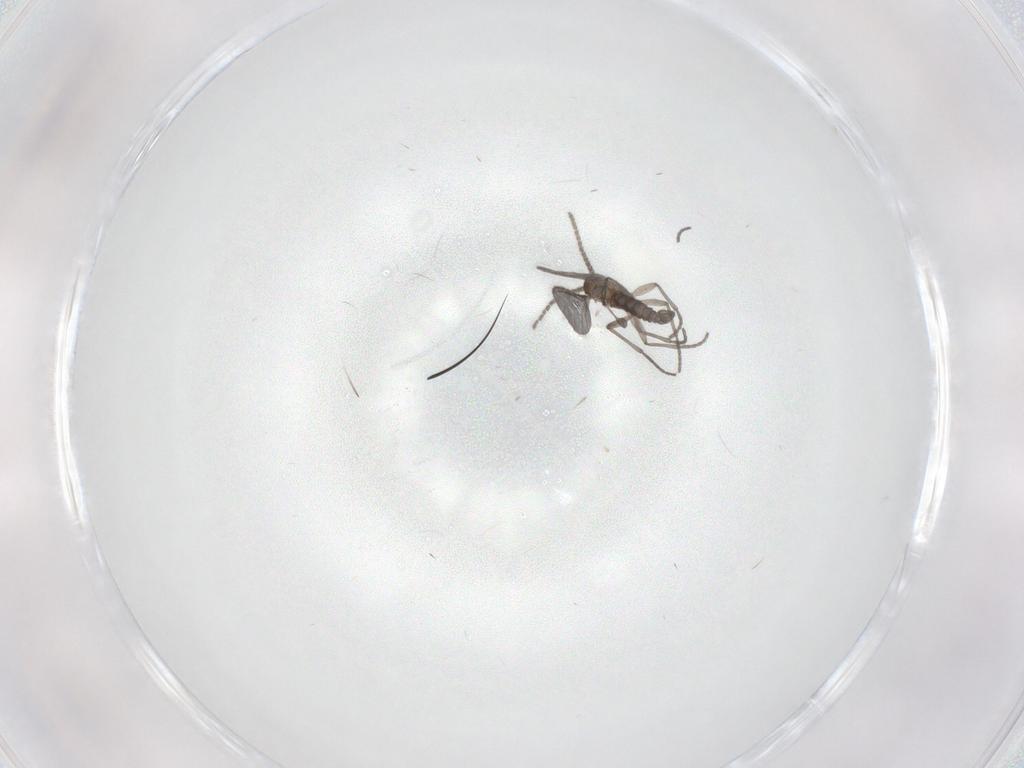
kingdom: Animalia
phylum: Arthropoda
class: Insecta
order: Diptera
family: Sciaridae
